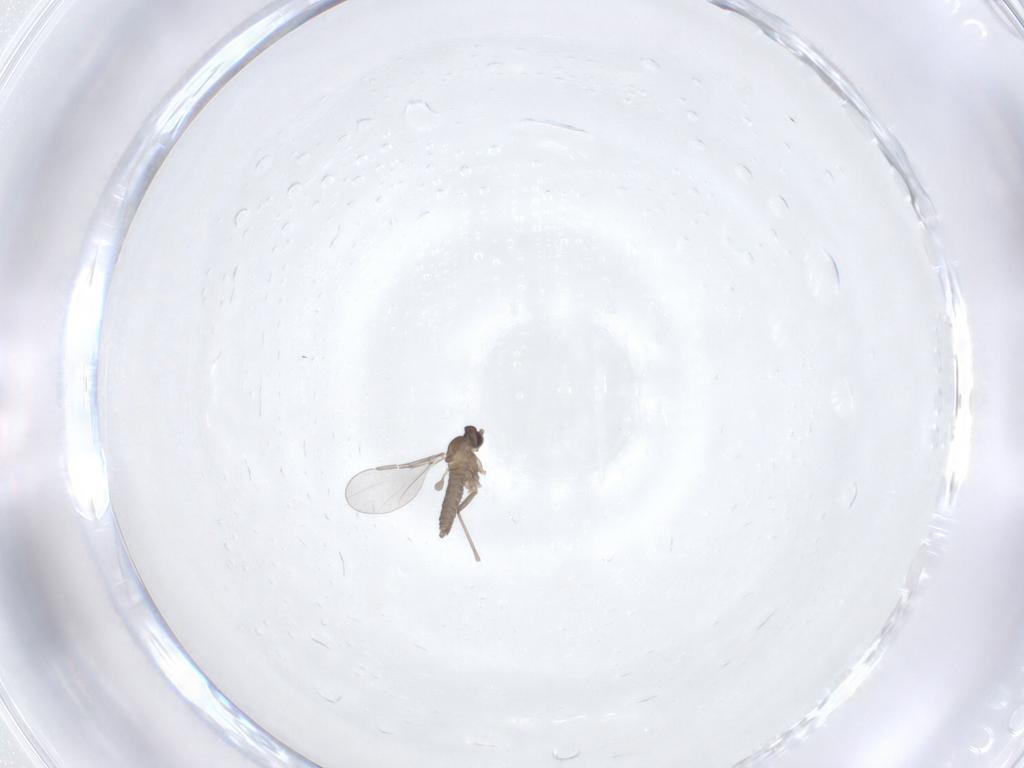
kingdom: Animalia
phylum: Arthropoda
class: Insecta
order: Diptera
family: Cecidomyiidae
